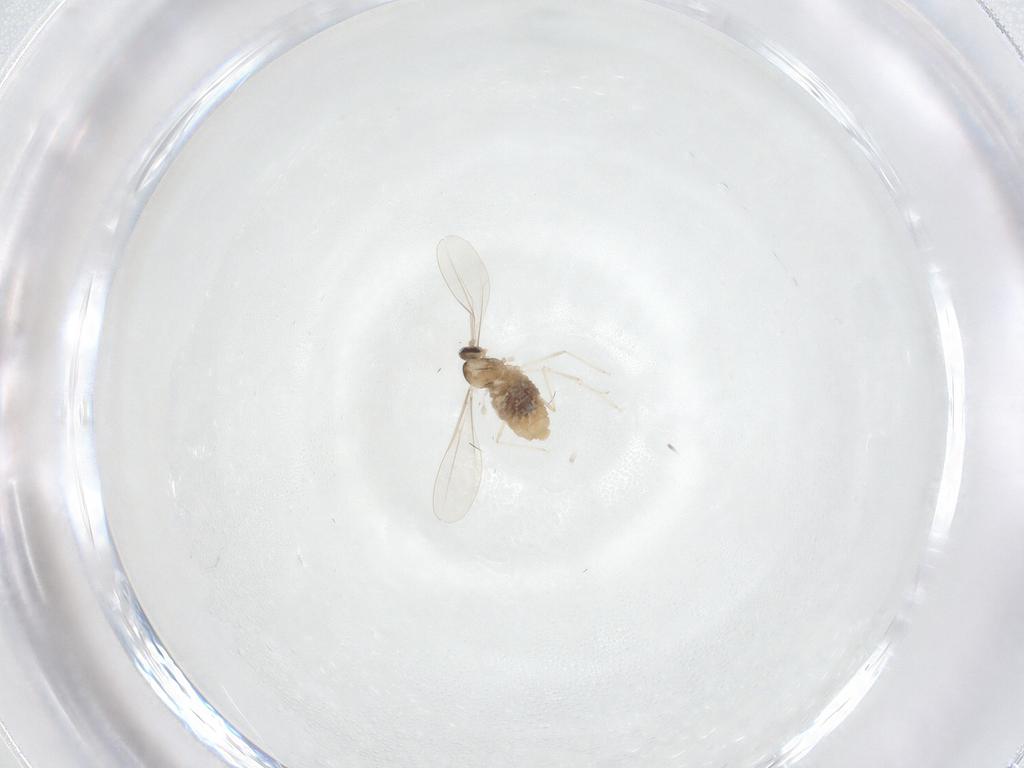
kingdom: Animalia
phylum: Arthropoda
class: Insecta
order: Diptera
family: Cecidomyiidae
